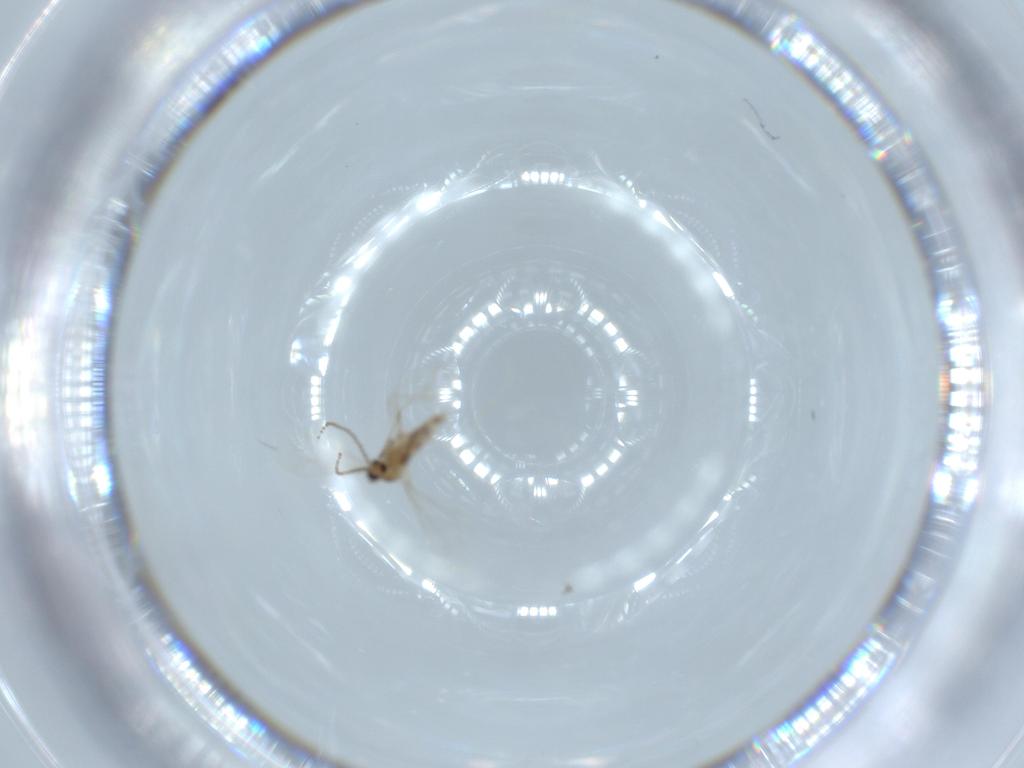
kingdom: Animalia
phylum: Arthropoda
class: Insecta
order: Diptera
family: Cecidomyiidae
